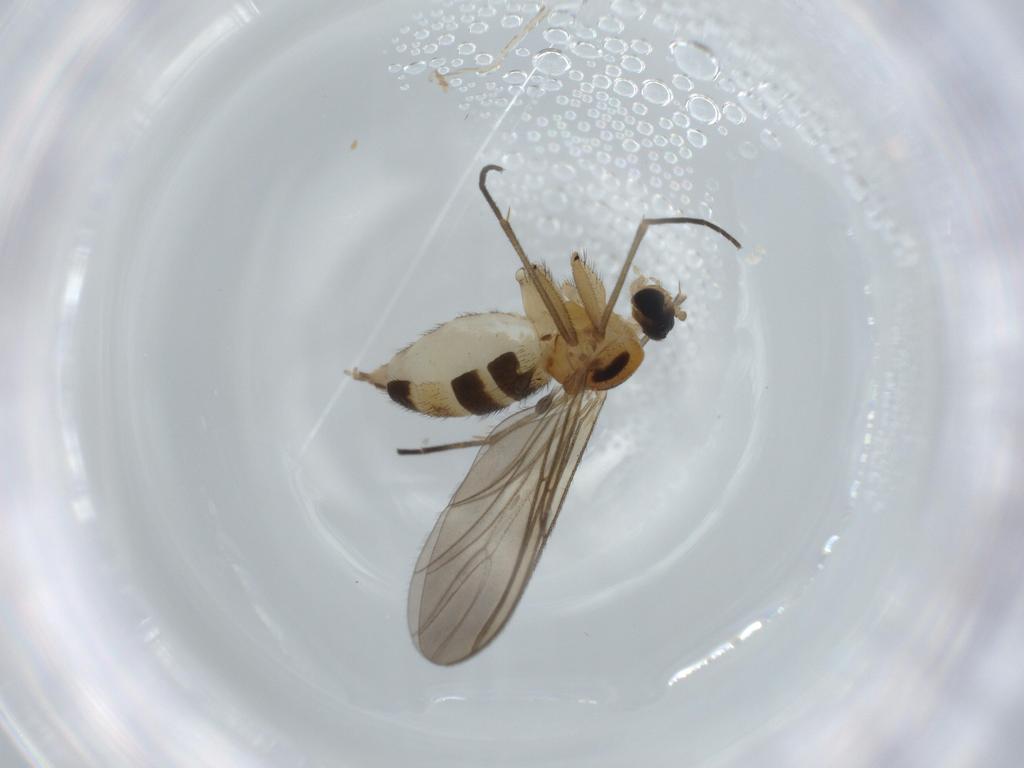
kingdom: Animalia
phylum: Arthropoda
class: Insecta
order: Diptera
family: Sciaridae
